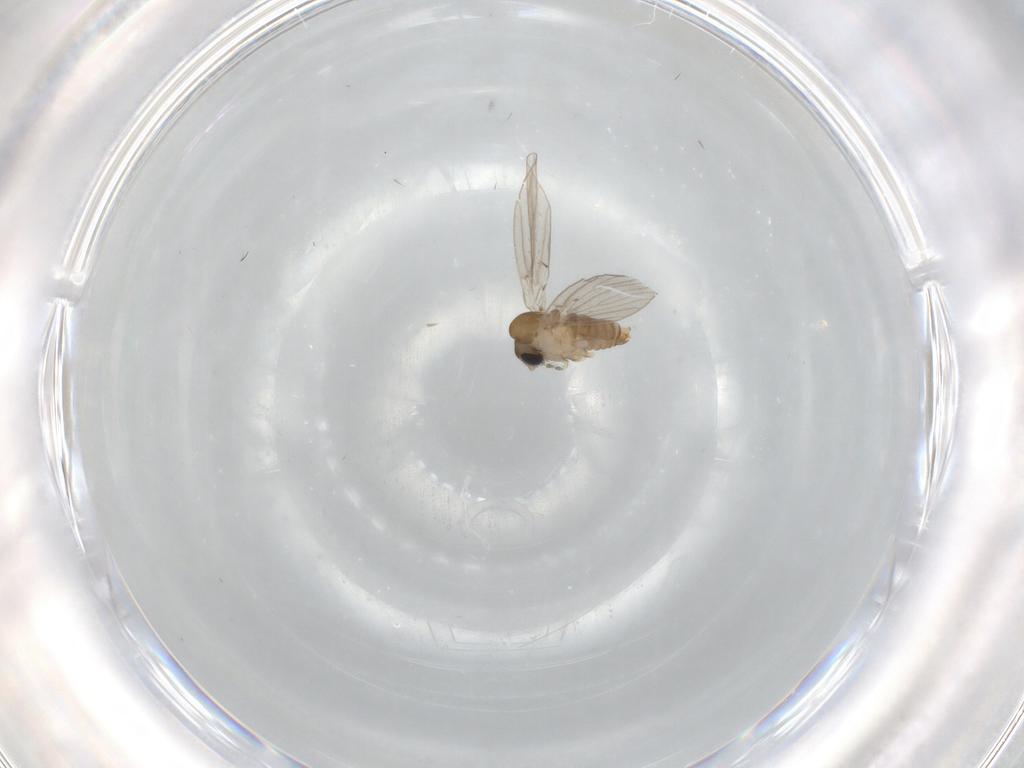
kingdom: Animalia
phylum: Arthropoda
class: Insecta
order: Diptera
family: Psychodidae
